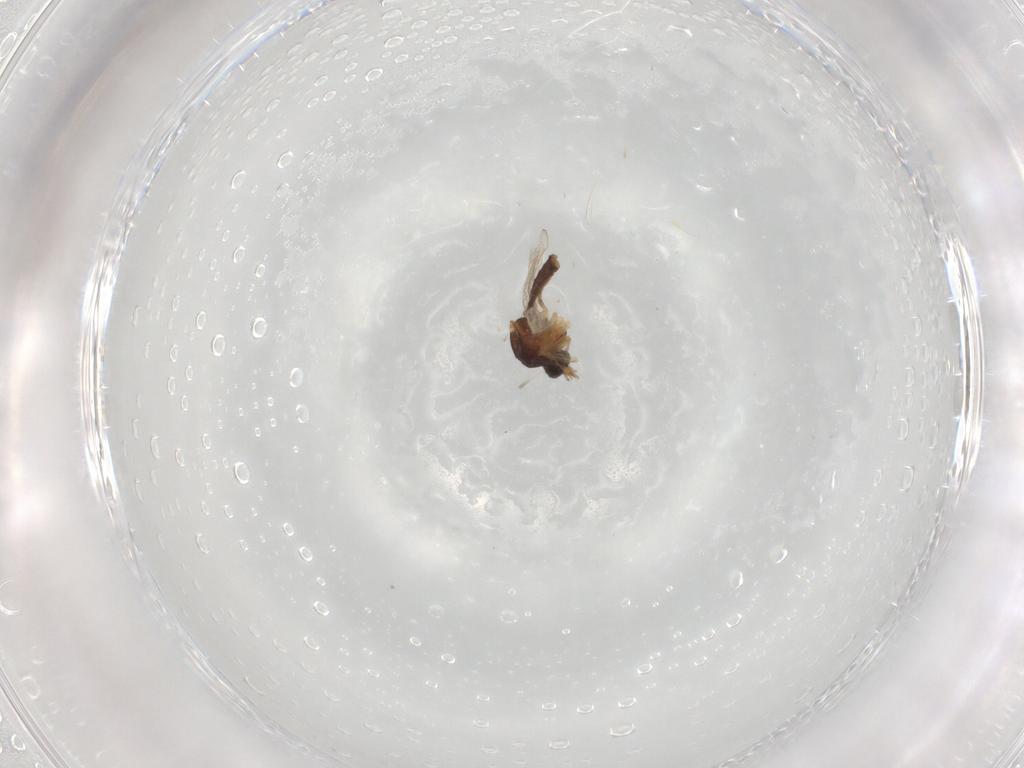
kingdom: Animalia
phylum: Arthropoda
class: Insecta
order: Diptera
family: Ceratopogonidae
